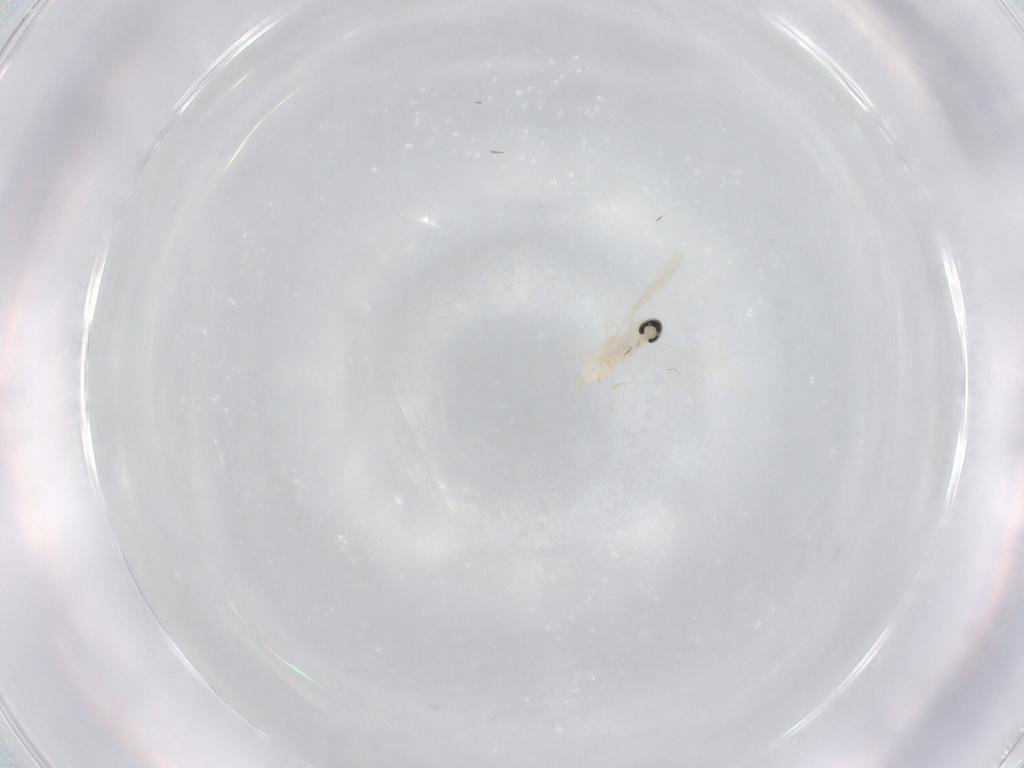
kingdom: Animalia
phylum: Arthropoda
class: Insecta
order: Diptera
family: Cecidomyiidae
